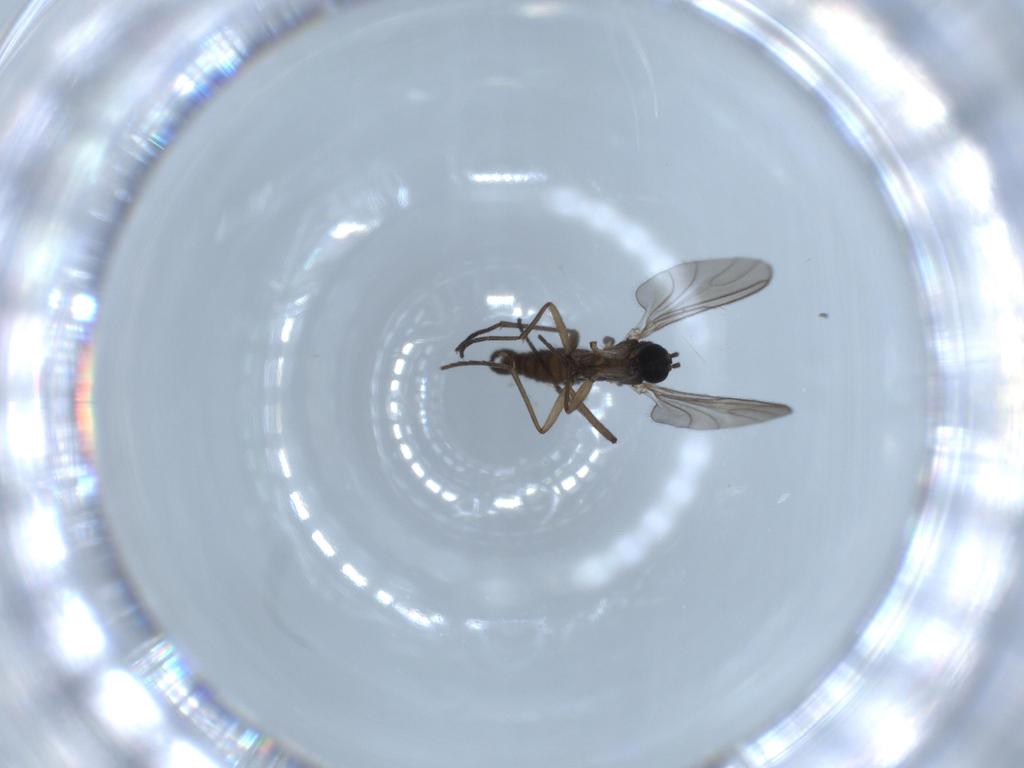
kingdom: Animalia
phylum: Arthropoda
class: Insecta
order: Diptera
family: Sciaridae
